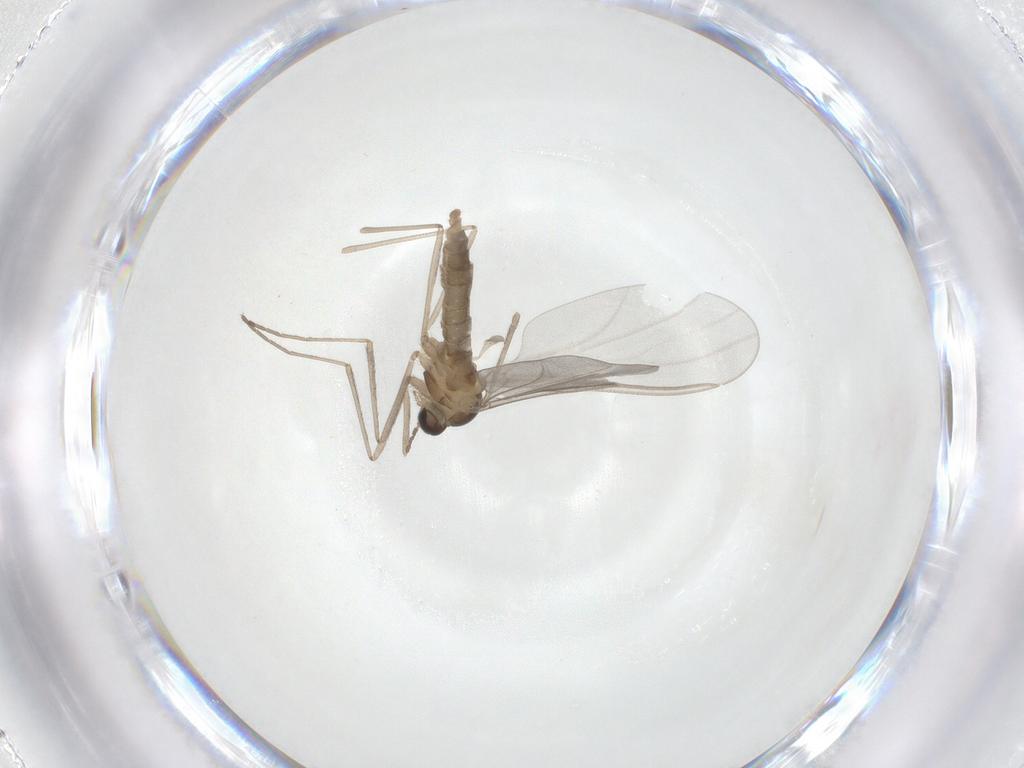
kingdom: Animalia
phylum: Arthropoda
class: Insecta
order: Diptera
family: Cecidomyiidae
